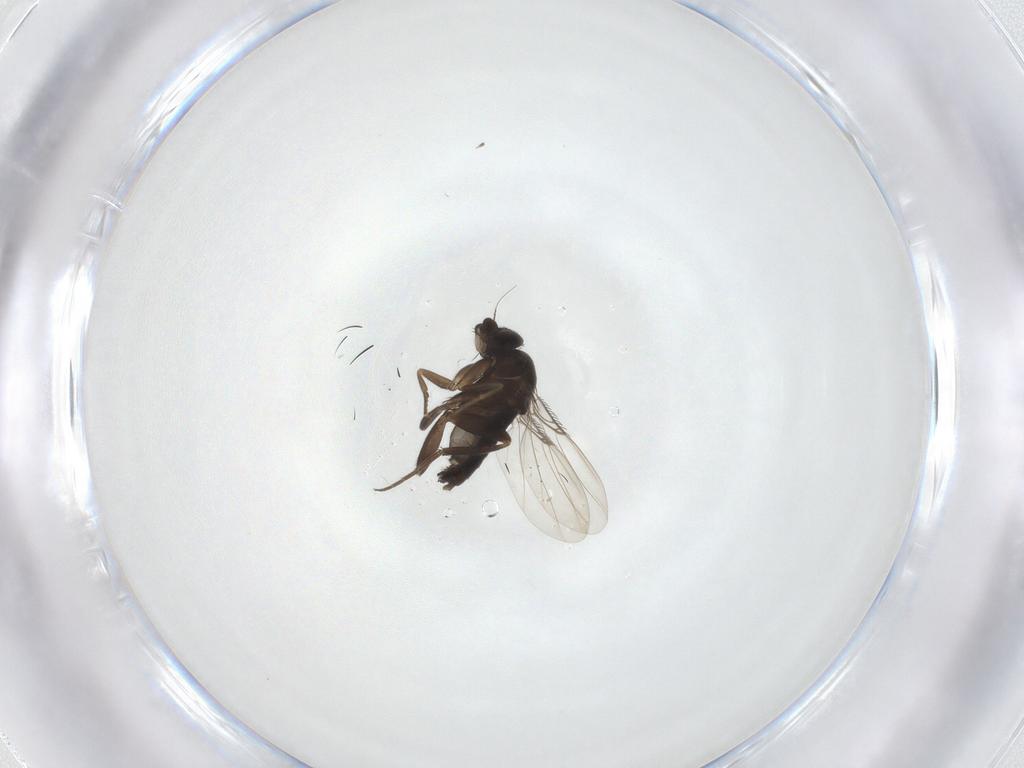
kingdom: Animalia
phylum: Arthropoda
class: Insecta
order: Diptera
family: Phoridae
